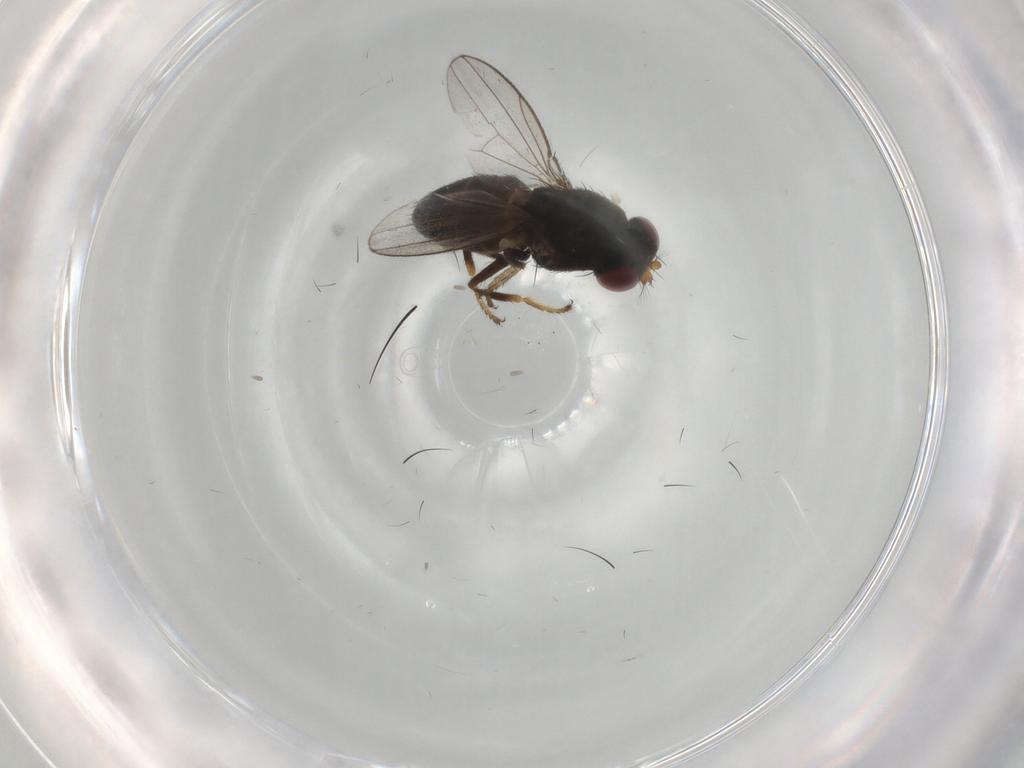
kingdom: Animalia
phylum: Arthropoda
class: Insecta
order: Diptera
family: Ephydridae
